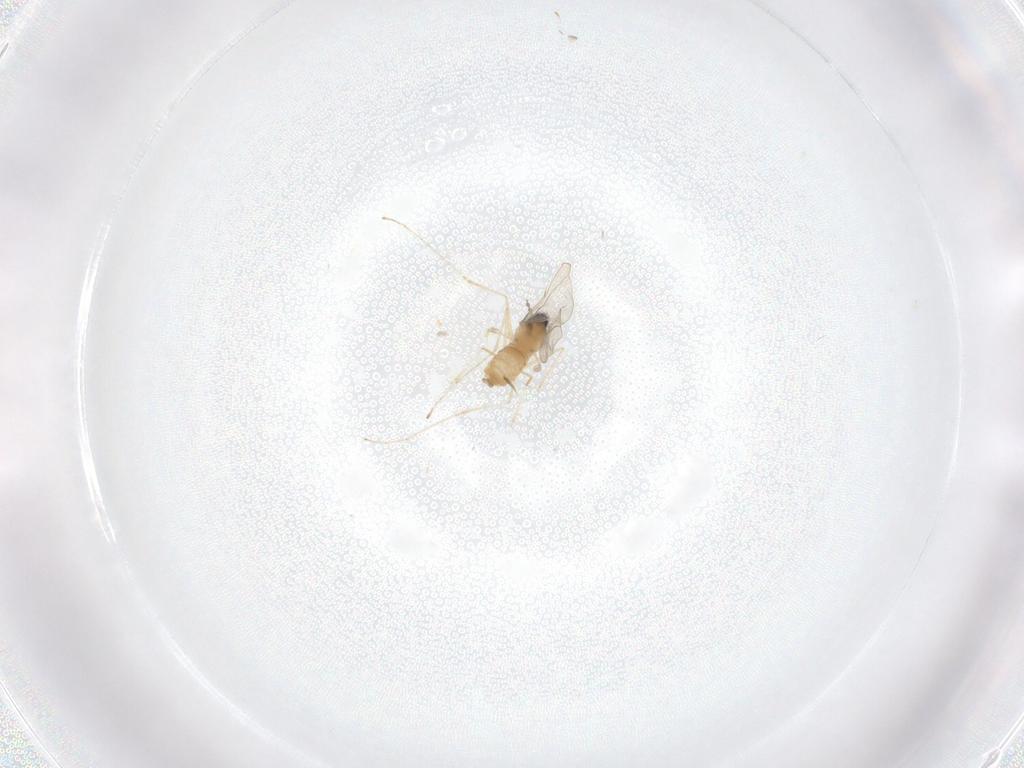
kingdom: Animalia
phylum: Arthropoda
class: Insecta
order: Diptera
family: Cecidomyiidae
